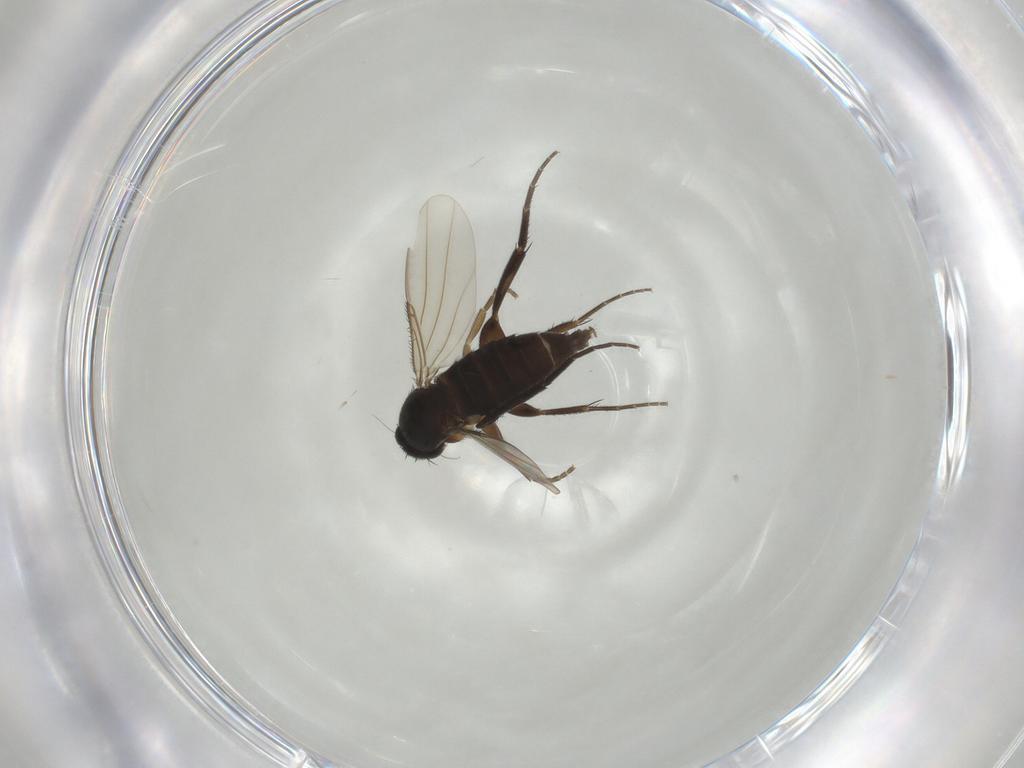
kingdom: Animalia
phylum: Arthropoda
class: Insecta
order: Diptera
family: Phoridae
